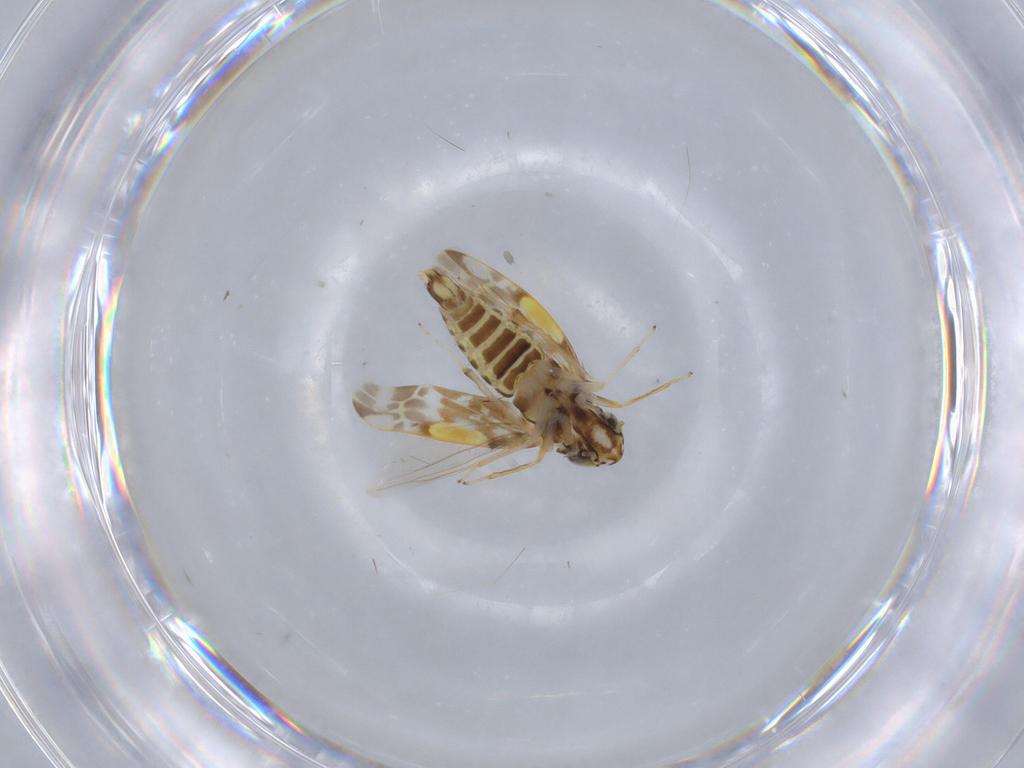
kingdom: Animalia
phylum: Arthropoda
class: Insecta
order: Hemiptera
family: Cicadellidae
